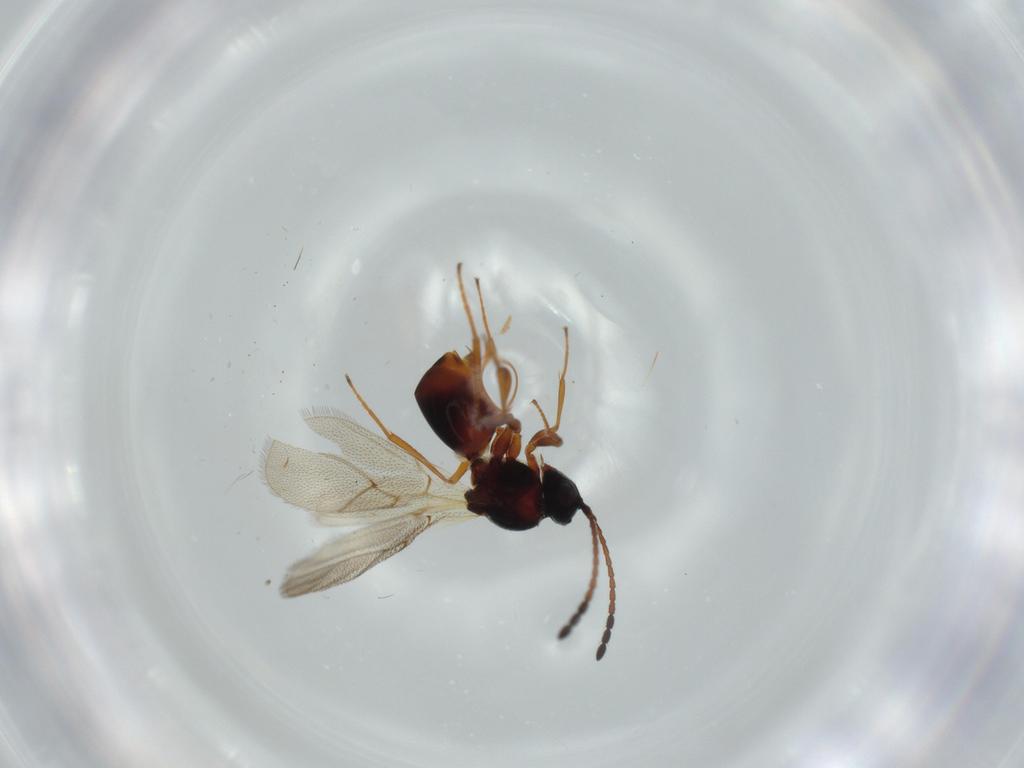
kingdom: Animalia
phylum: Arthropoda
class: Insecta
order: Hymenoptera
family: Figitidae
